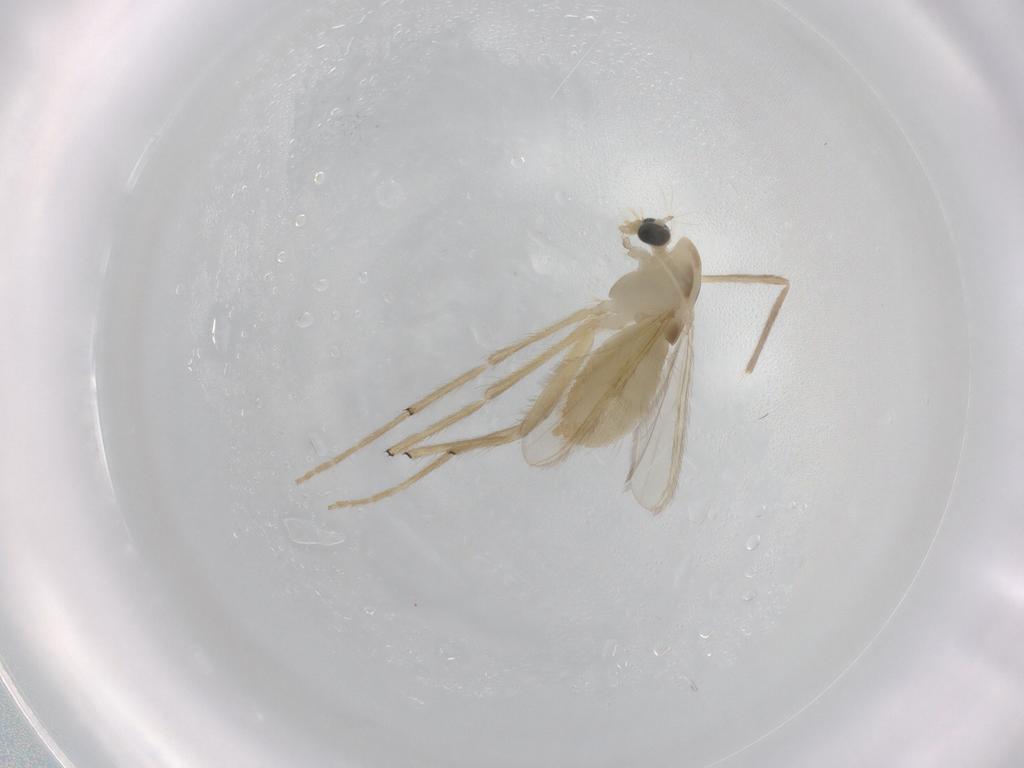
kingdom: Animalia
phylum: Arthropoda
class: Insecta
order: Diptera
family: Chironomidae
